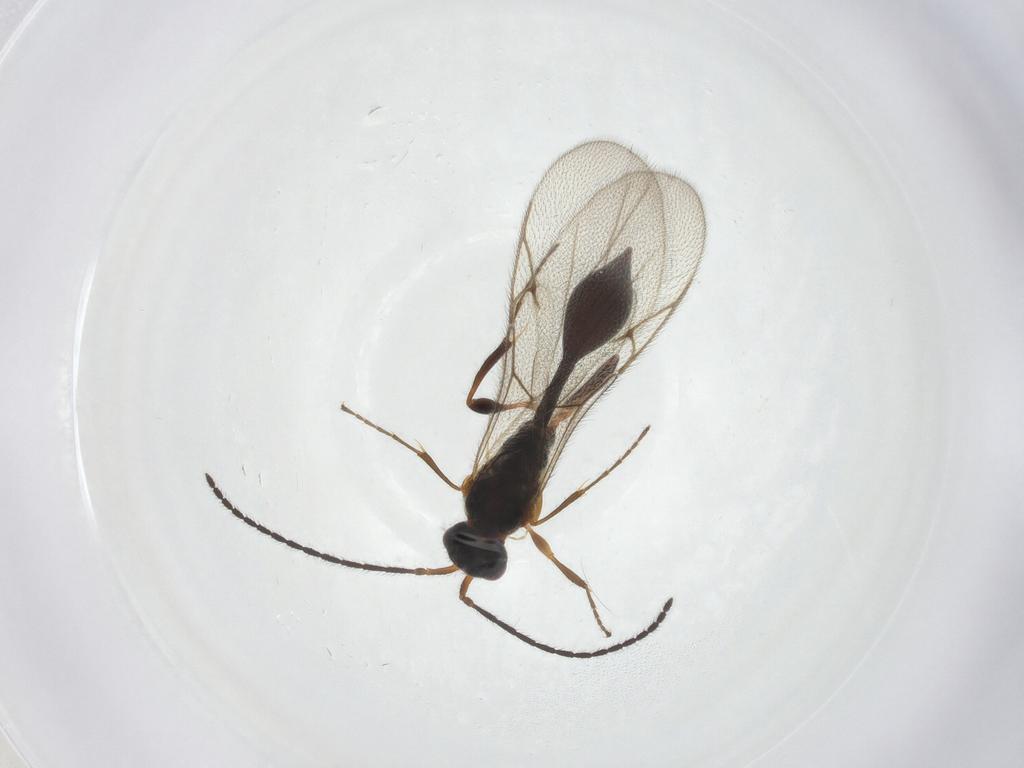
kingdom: Animalia
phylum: Arthropoda
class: Insecta
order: Hymenoptera
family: Diapriidae
